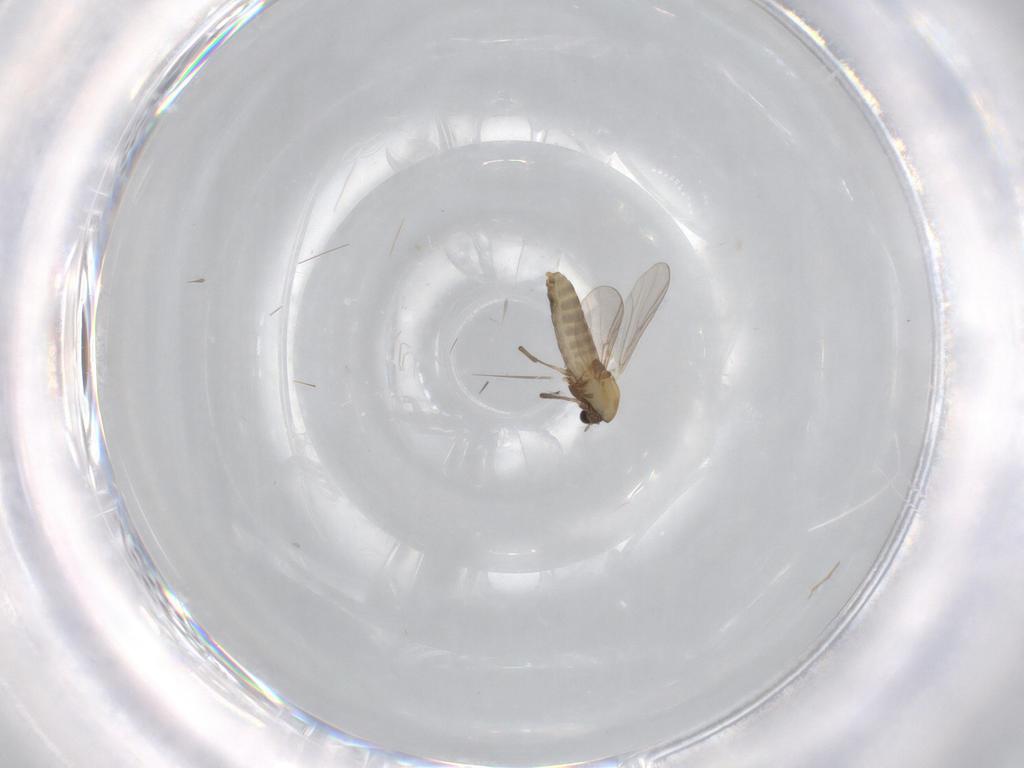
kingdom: Animalia
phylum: Arthropoda
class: Insecta
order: Diptera
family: Chironomidae
